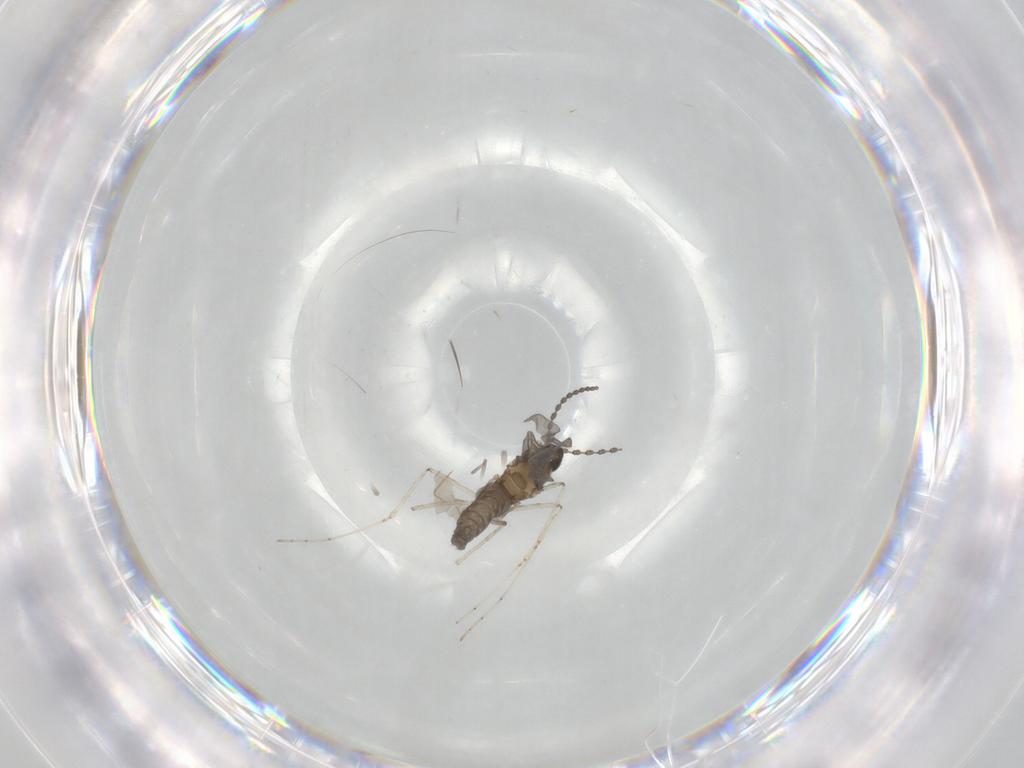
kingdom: Animalia
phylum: Arthropoda
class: Insecta
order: Diptera
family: Cecidomyiidae
